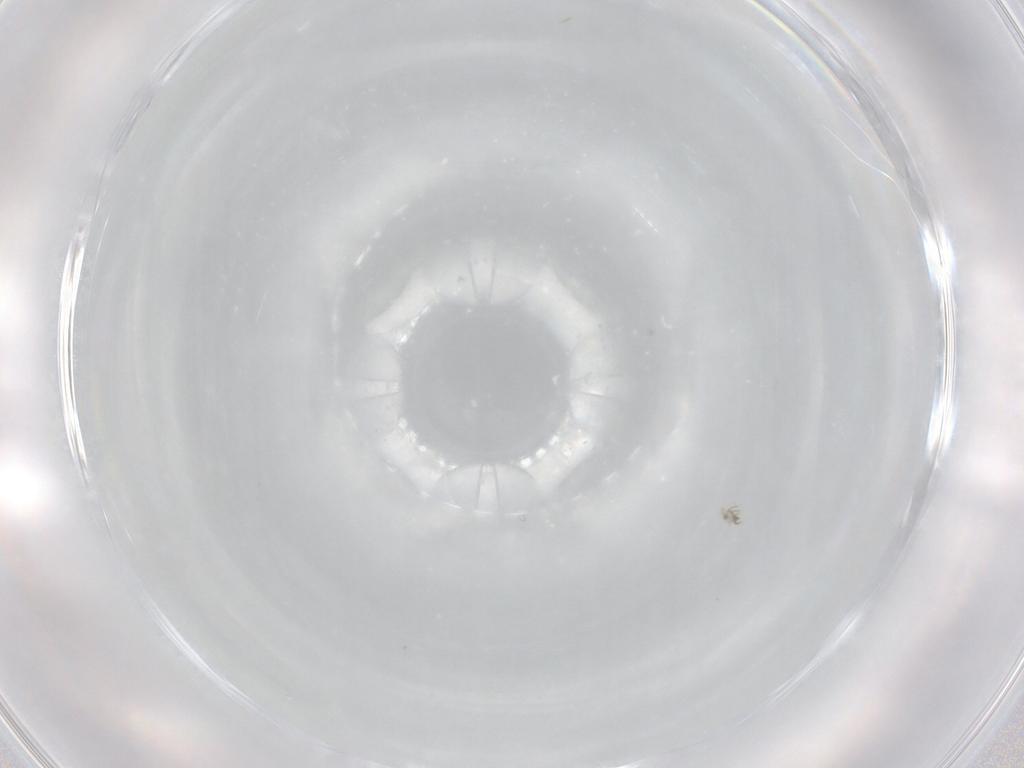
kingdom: Animalia
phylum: Arthropoda
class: Arachnida
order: Sarcoptiformes
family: Humerobatidae
